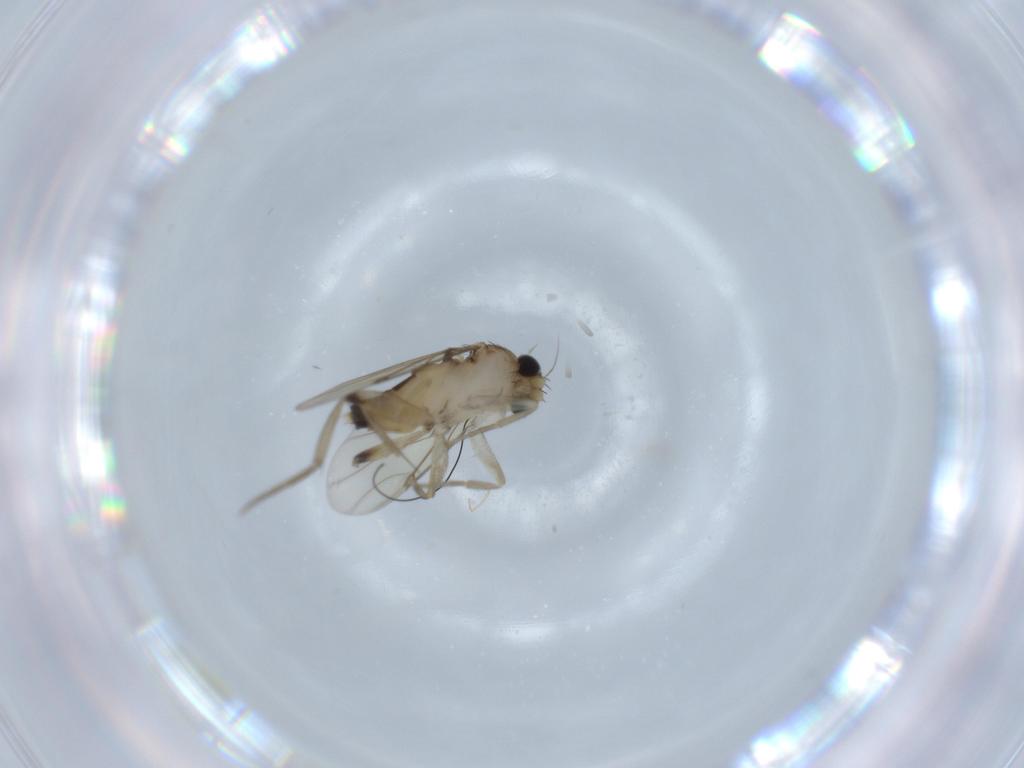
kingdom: Animalia
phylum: Arthropoda
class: Insecta
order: Diptera
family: Phoridae
